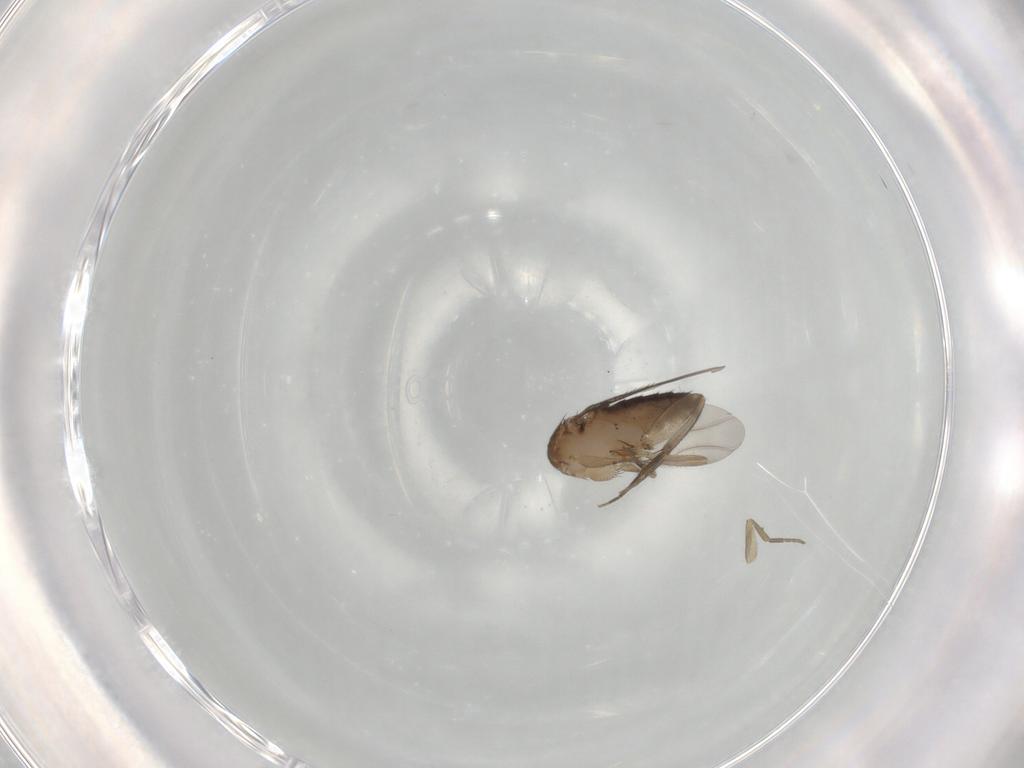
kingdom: Animalia
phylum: Arthropoda
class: Insecta
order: Diptera
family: Phoridae
